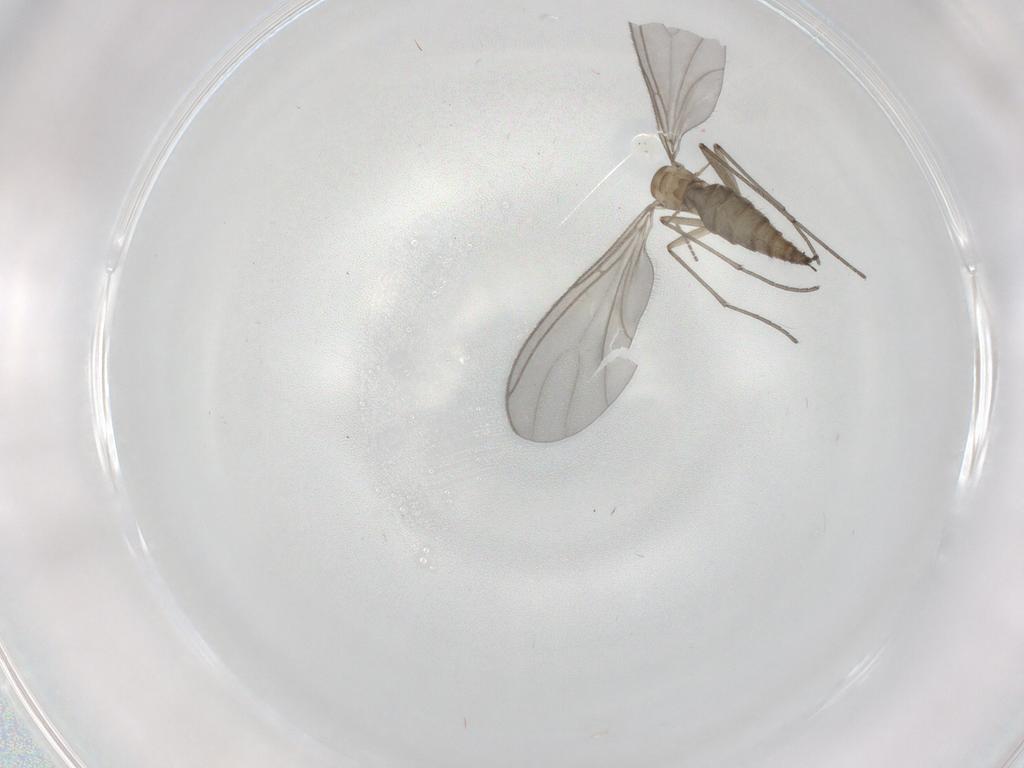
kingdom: Animalia
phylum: Arthropoda
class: Insecta
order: Diptera
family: Sciaridae
